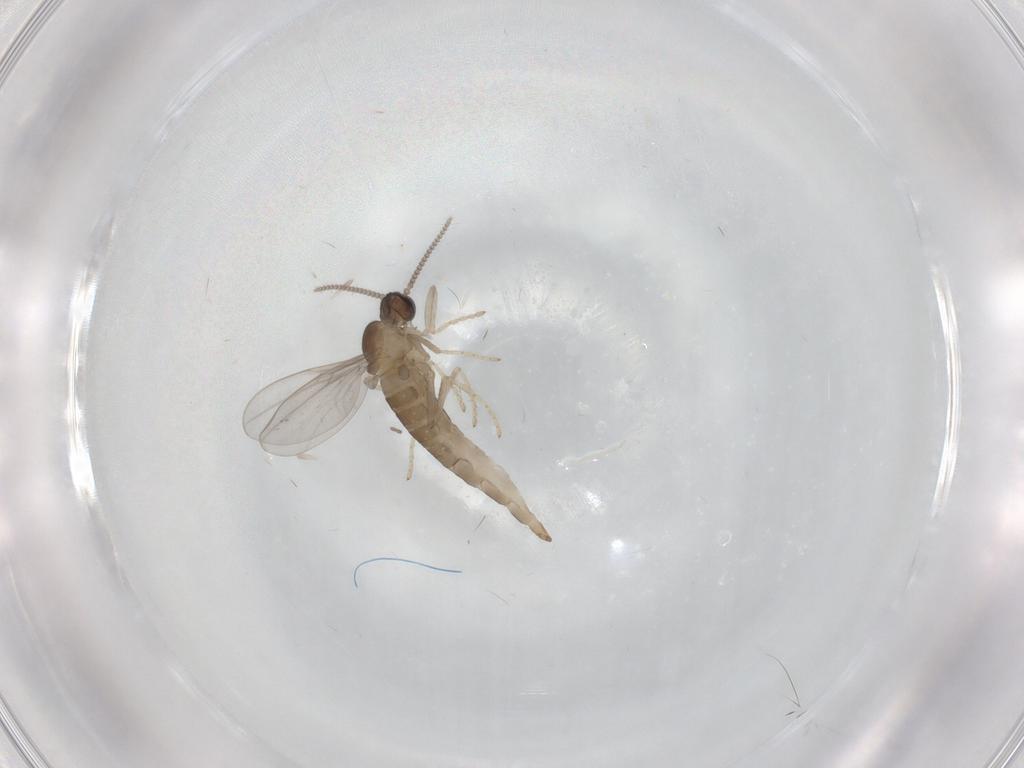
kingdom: Animalia
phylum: Arthropoda
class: Insecta
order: Diptera
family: Cecidomyiidae
